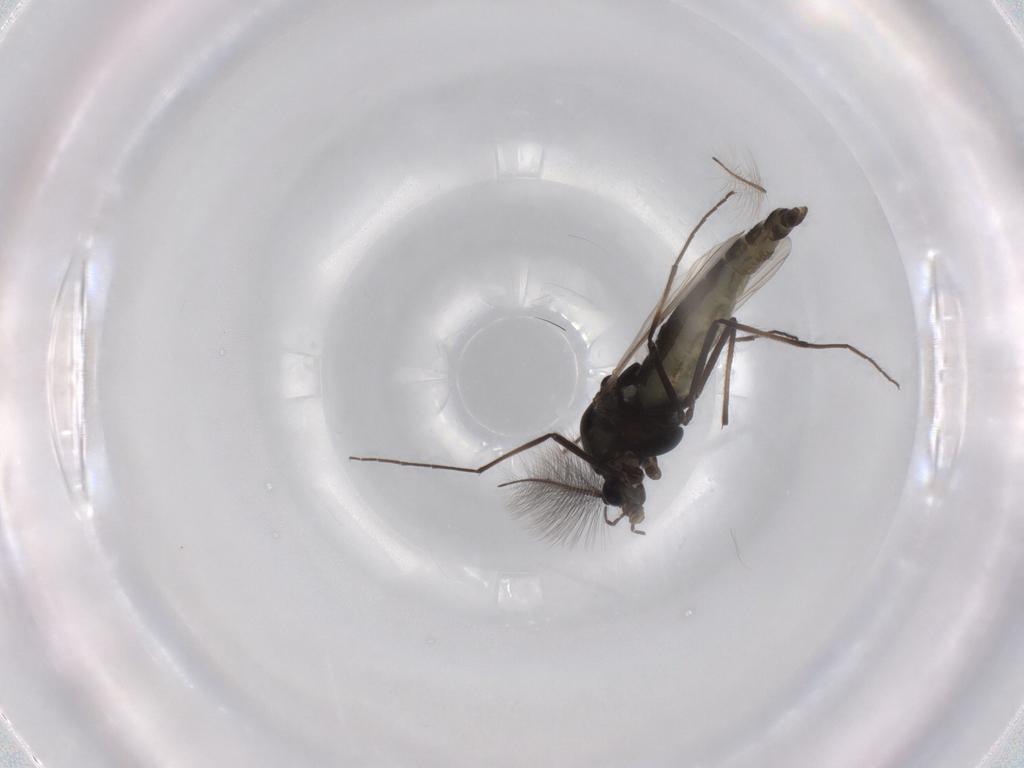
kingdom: Animalia
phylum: Arthropoda
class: Insecta
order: Diptera
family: Chironomidae
